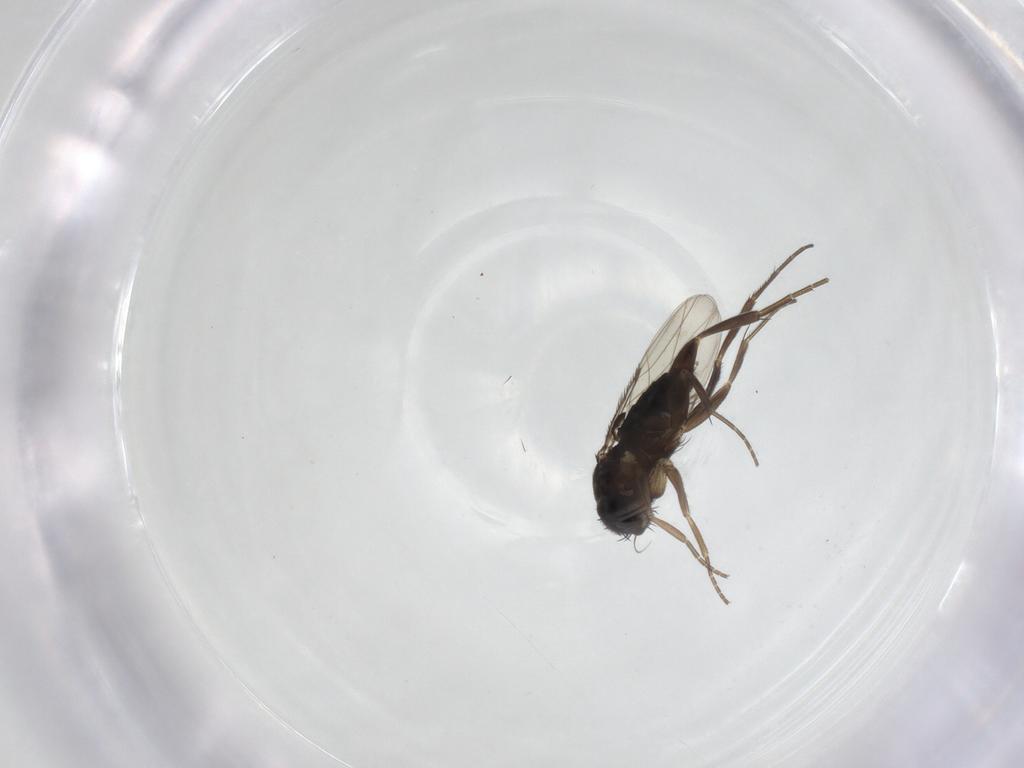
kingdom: Animalia
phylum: Arthropoda
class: Insecta
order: Diptera
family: Phoridae
